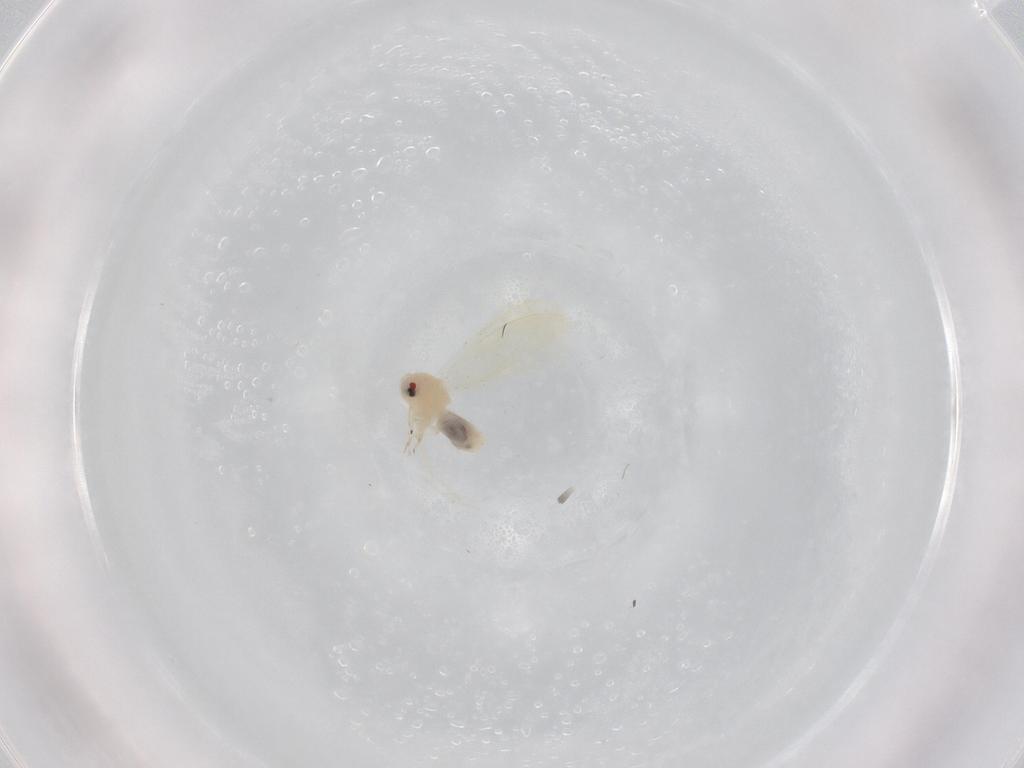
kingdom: Animalia
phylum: Arthropoda
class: Insecta
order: Hemiptera
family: Aleyrodidae
